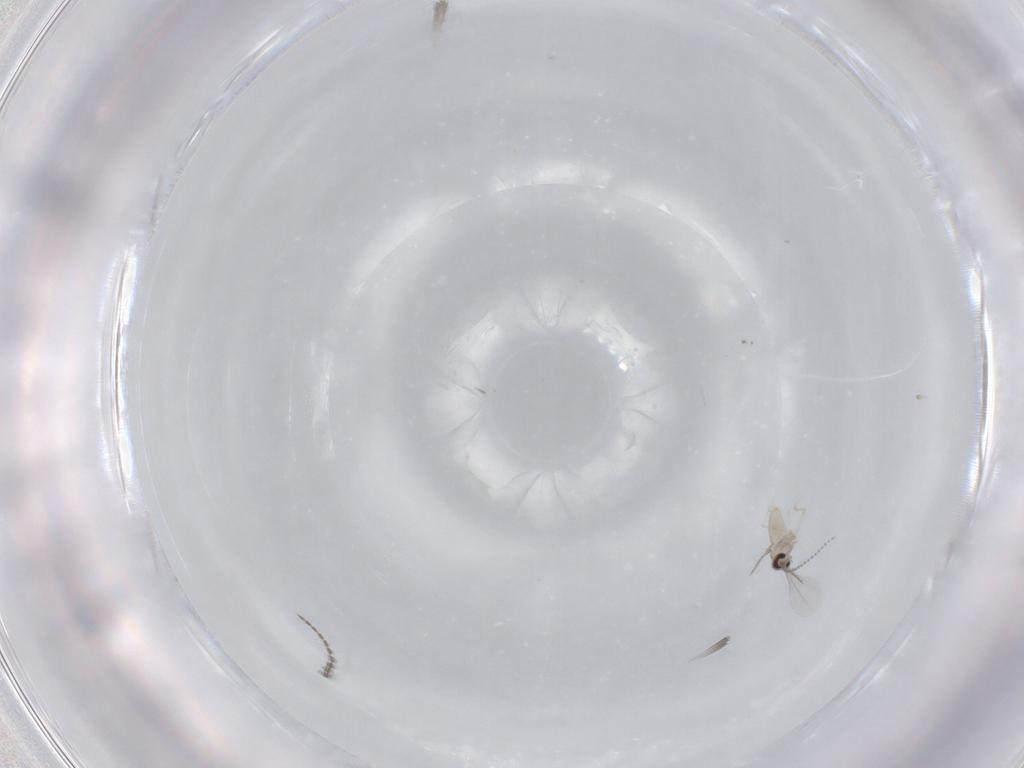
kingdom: Animalia
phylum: Arthropoda
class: Insecta
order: Diptera
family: Cecidomyiidae
